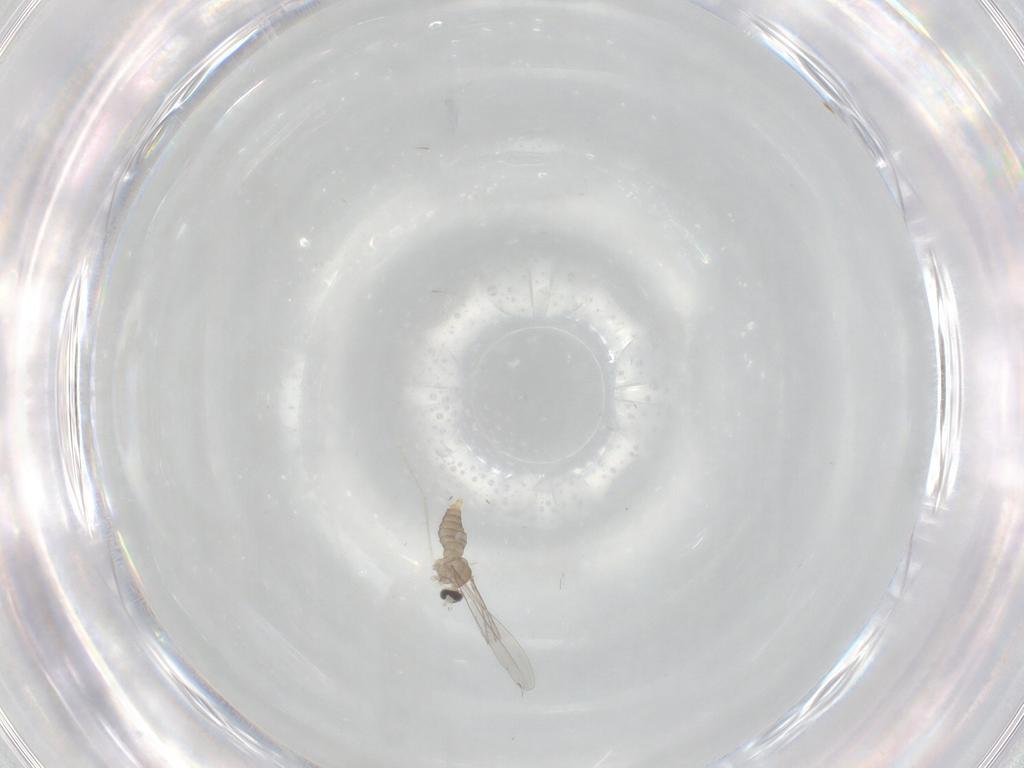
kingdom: Animalia
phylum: Arthropoda
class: Insecta
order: Diptera
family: Cecidomyiidae
